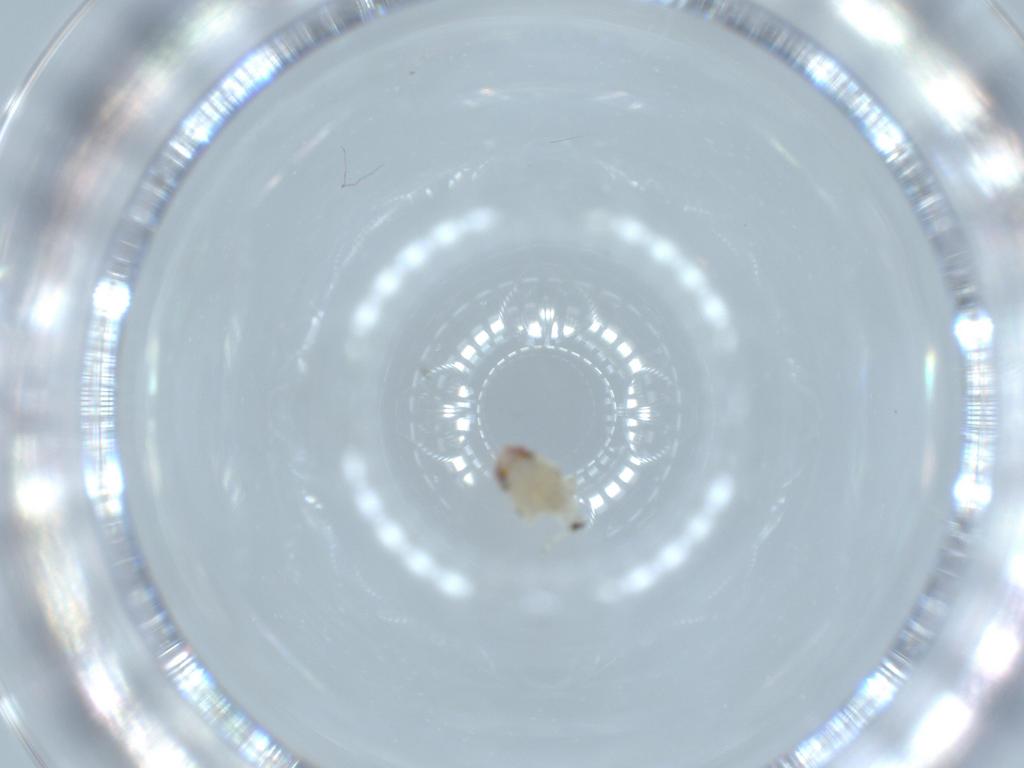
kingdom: Animalia
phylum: Arthropoda
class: Insecta
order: Hemiptera
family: Nogodinidae
